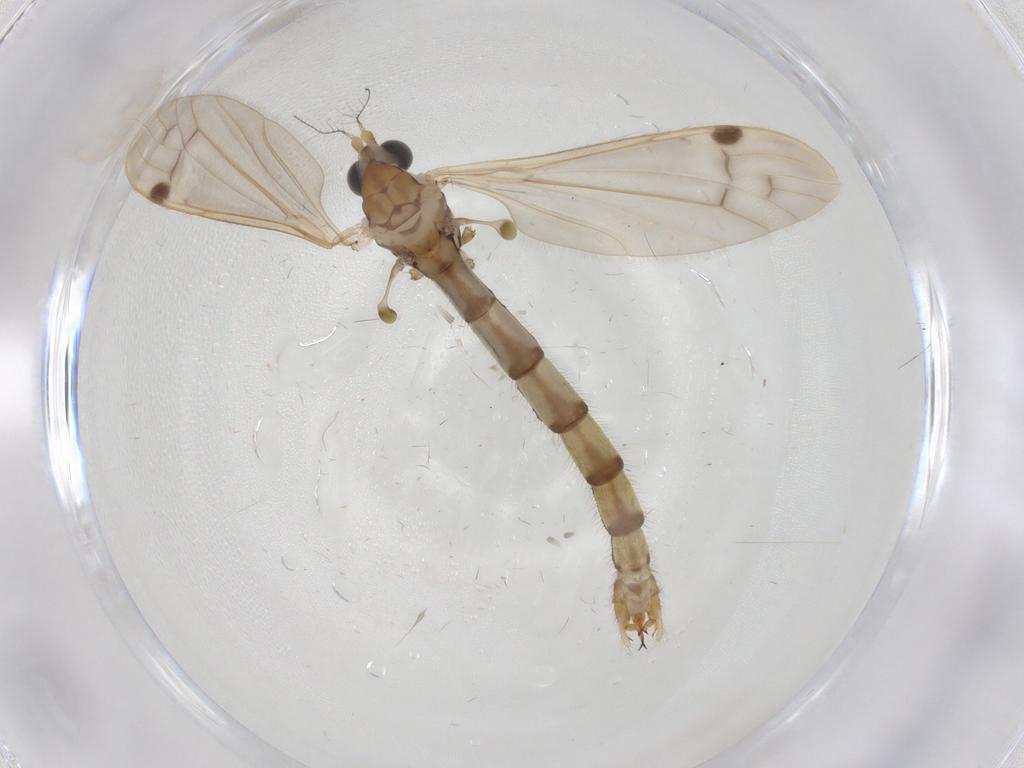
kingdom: Animalia
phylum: Arthropoda
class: Insecta
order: Diptera
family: Limoniidae
